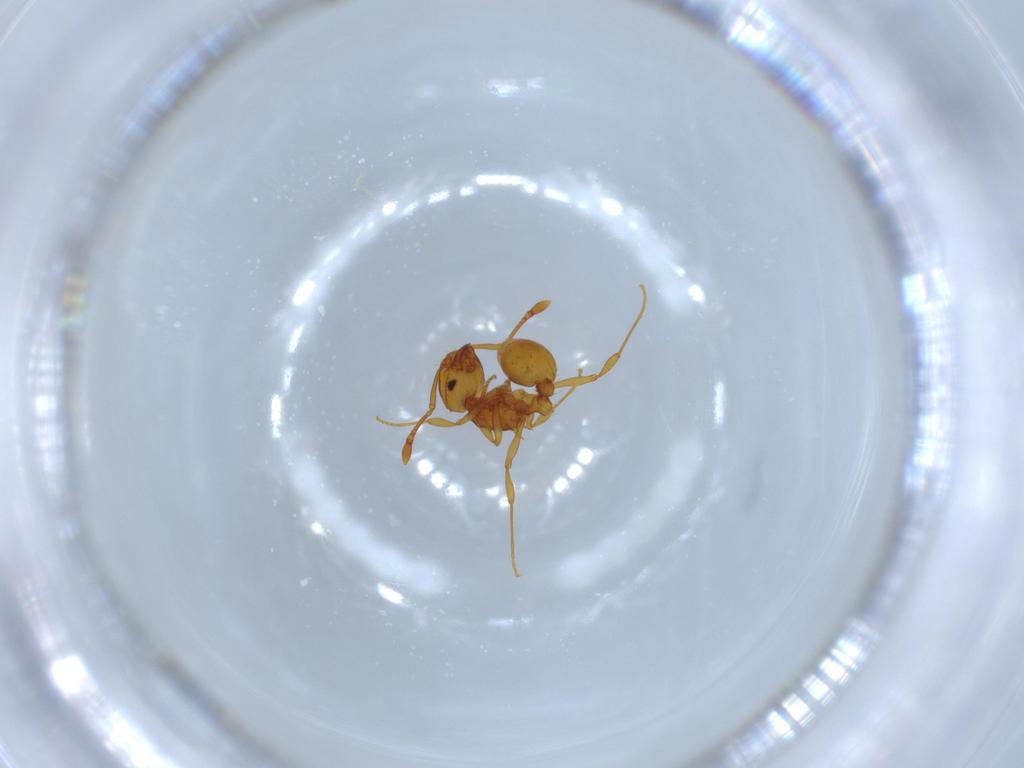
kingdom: Animalia
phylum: Arthropoda
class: Insecta
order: Hymenoptera
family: Formicidae
